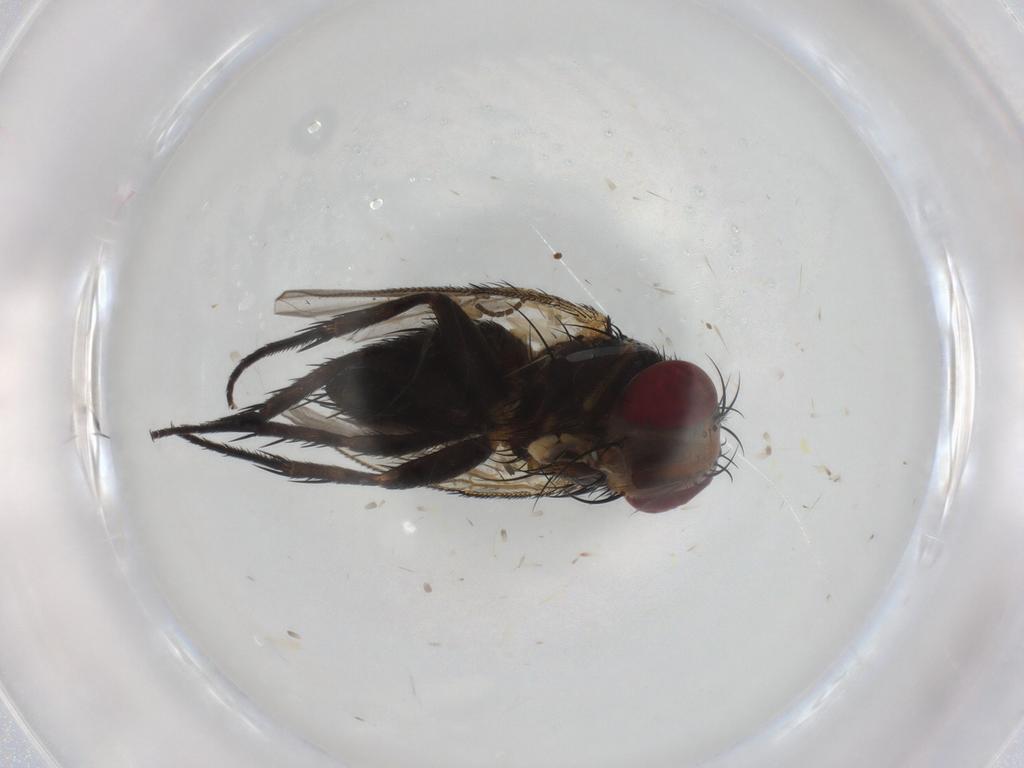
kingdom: Animalia
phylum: Arthropoda
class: Insecta
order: Diptera
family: Tachinidae
